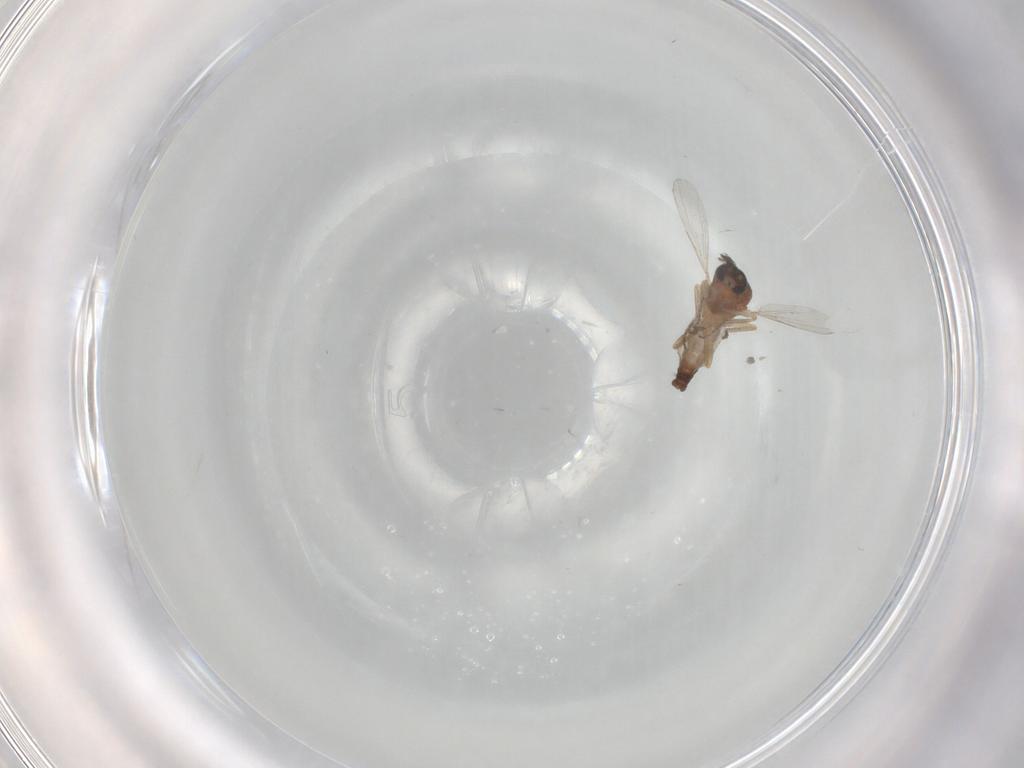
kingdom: Animalia
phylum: Arthropoda
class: Insecta
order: Diptera
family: Ceratopogonidae
